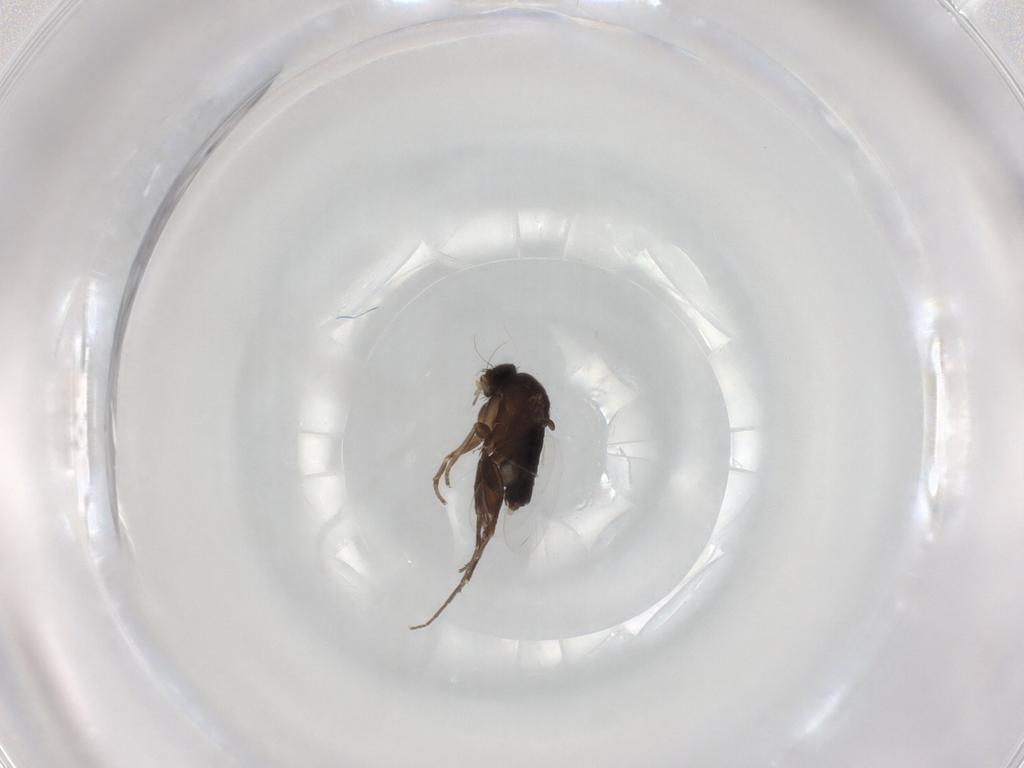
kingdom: Animalia
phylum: Arthropoda
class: Insecta
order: Diptera
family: Phoridae
